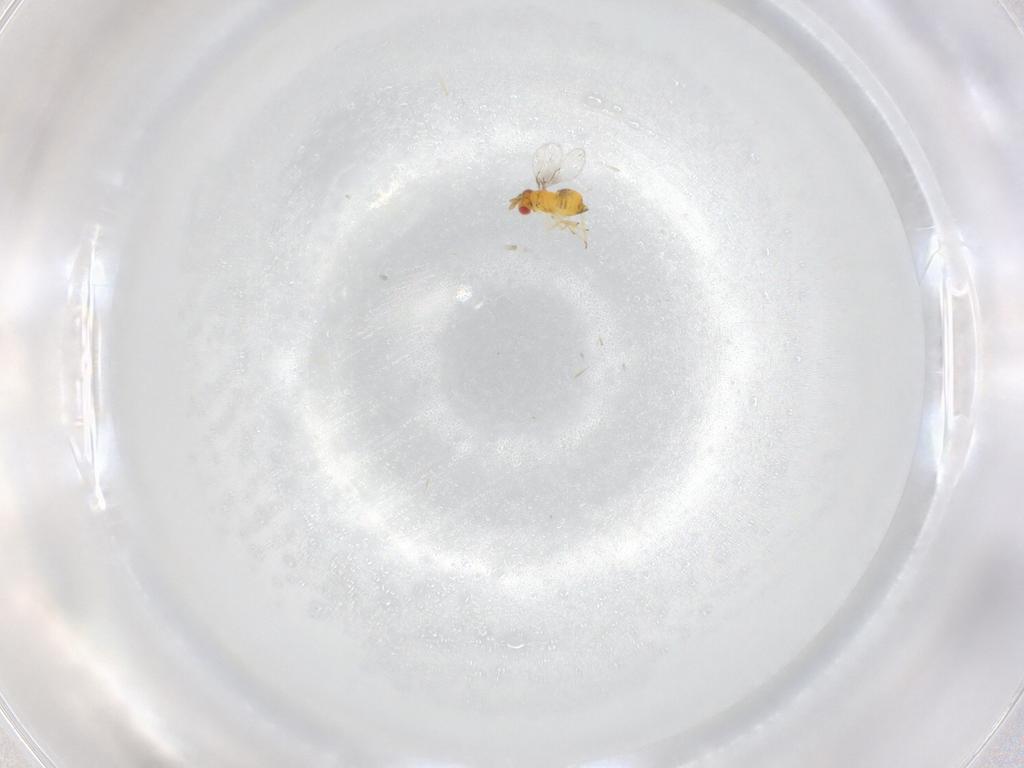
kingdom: Animalia
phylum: Arthropoda
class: Insecta
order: Hymenoptera
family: Trichogrammatidae
